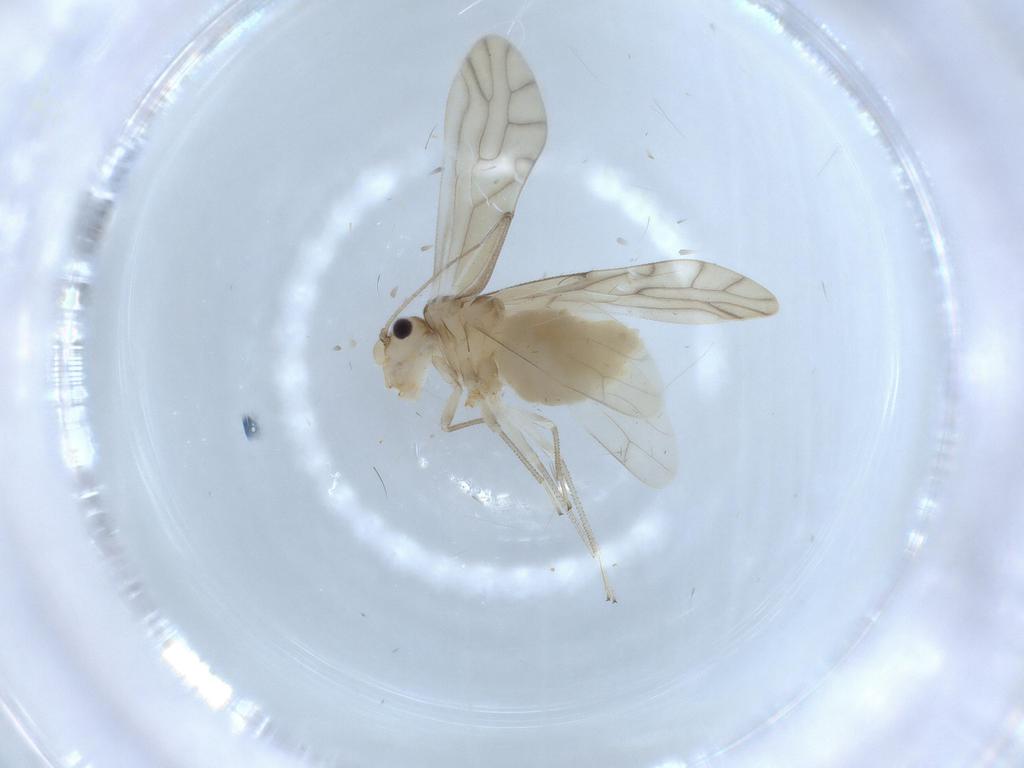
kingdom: Animalia
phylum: Arthropoda
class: Insecta
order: Psocodea
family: Caeciliusidae
